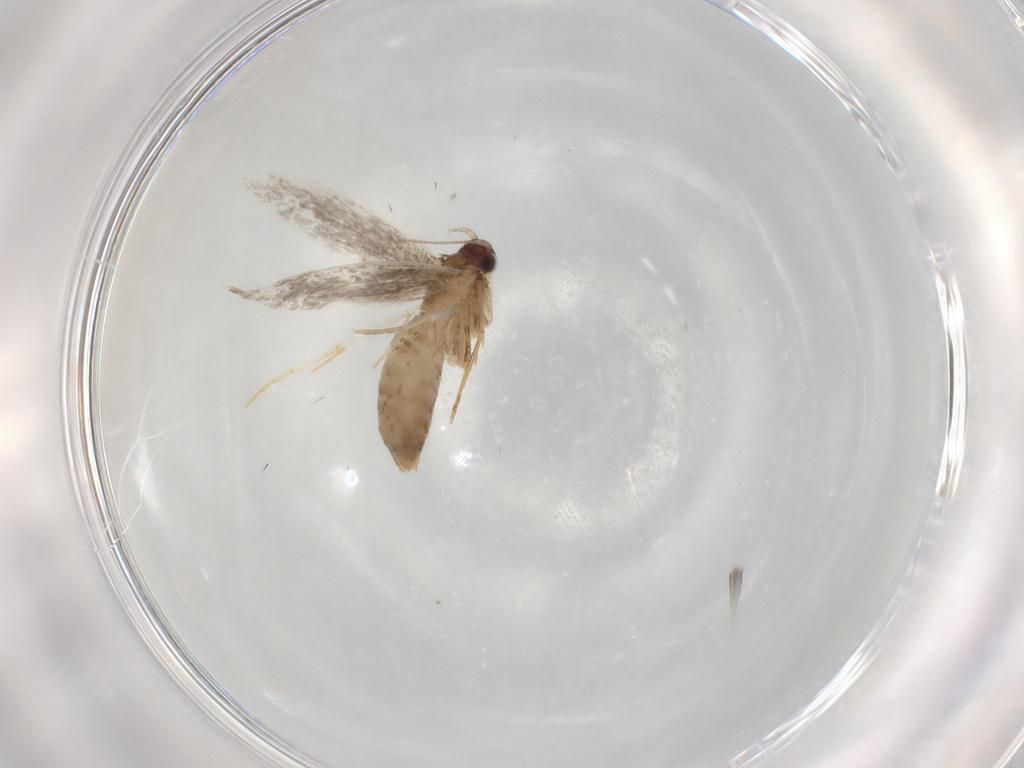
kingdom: Animalia
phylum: Arthropoda
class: Insecta
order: Lepidoptera
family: Tineidae
